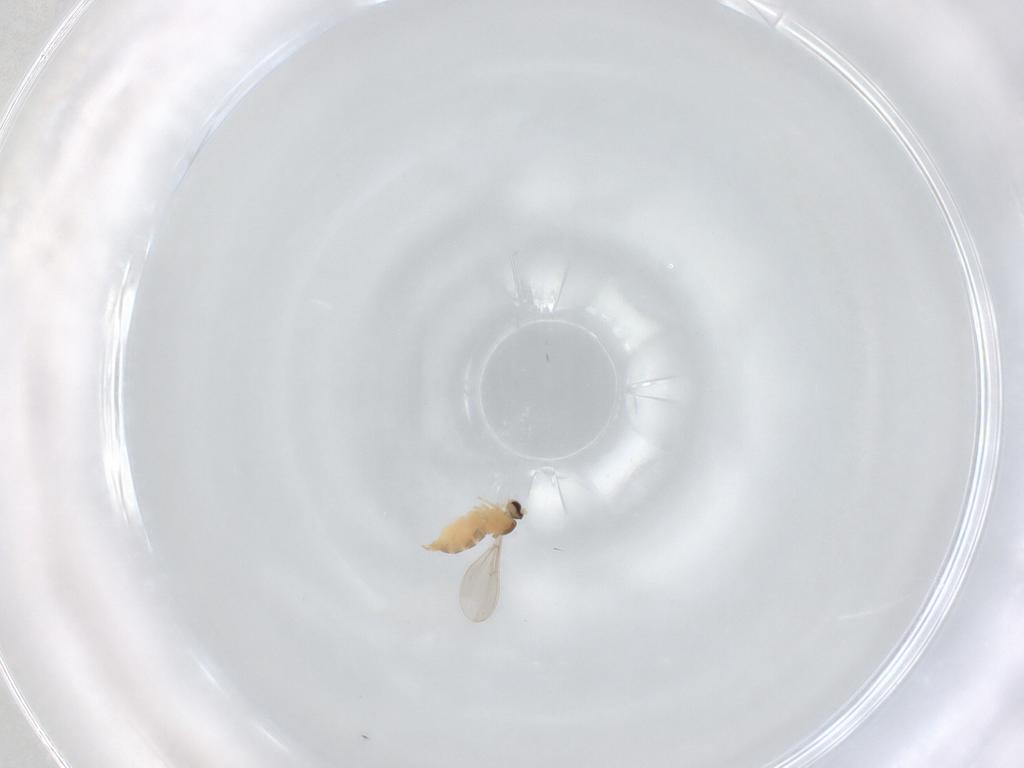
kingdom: Animalia
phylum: Arthropoda
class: Insecta
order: Diptera
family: Cecidomyiidae
